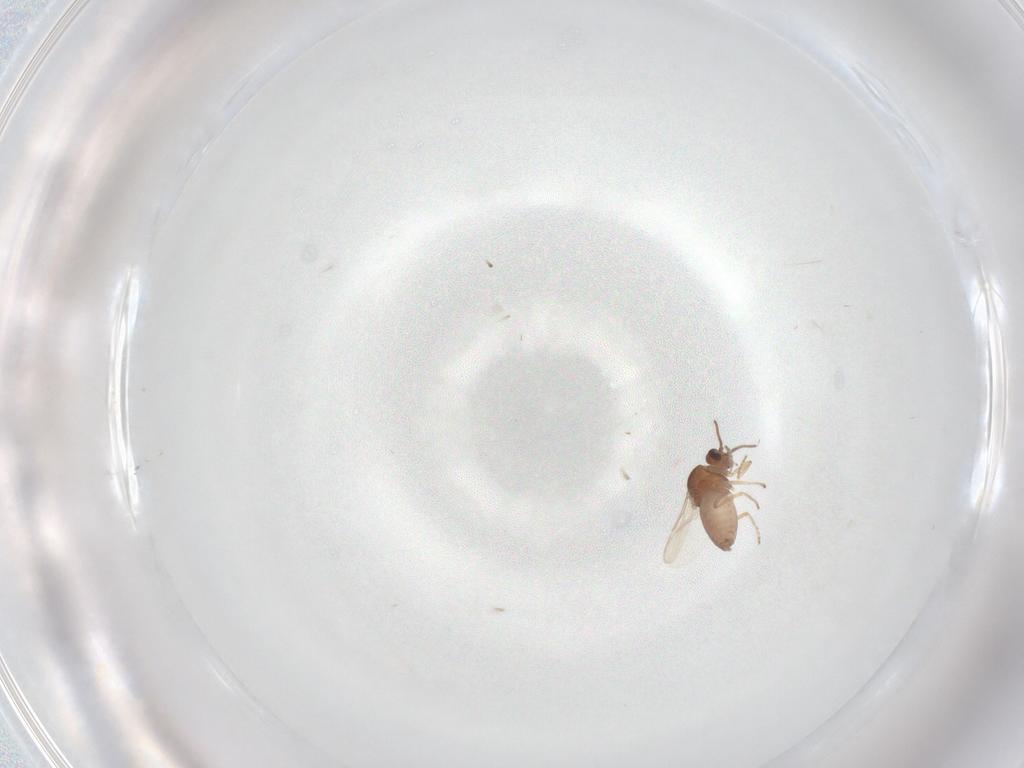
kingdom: Animalia
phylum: Arthropoda
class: Insecta
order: Diptera
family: Ceratopogonidae
